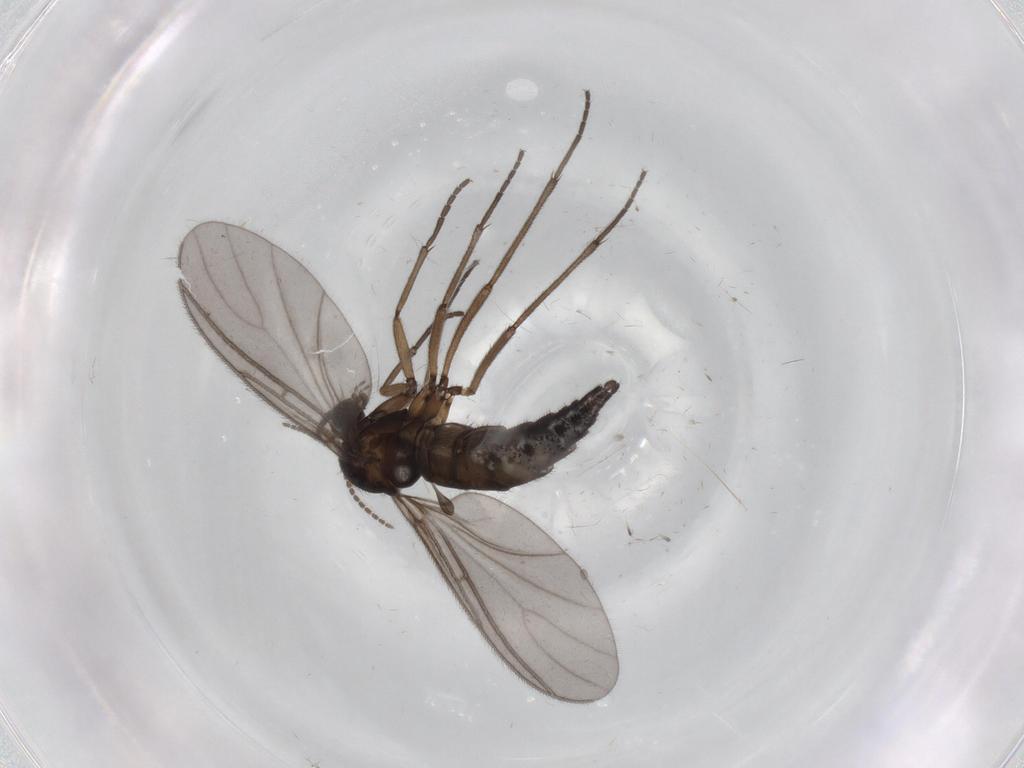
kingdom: Animalia
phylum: Arthropoda
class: Insecta
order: Diptera
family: Sciaridae
